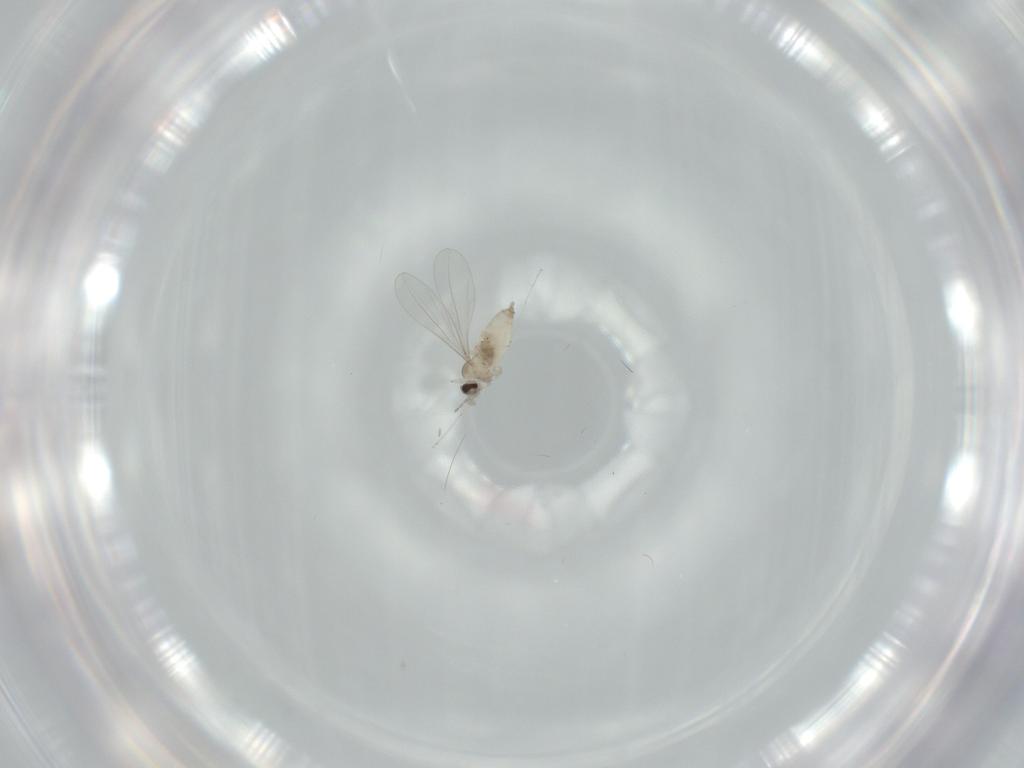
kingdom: Animalia
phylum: Arthropoda
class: Insecta
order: Diptera
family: Cecidomyiidae
